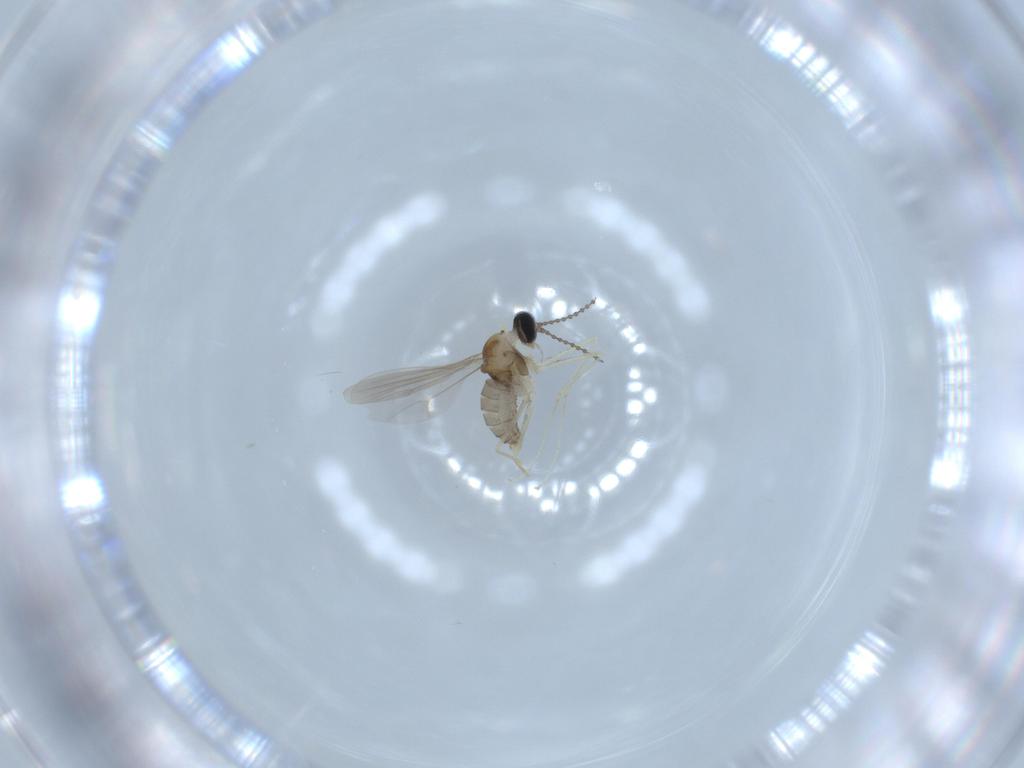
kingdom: Animalia
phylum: Arthropoda
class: Insecta
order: Diptera
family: Cecidomyiidae
